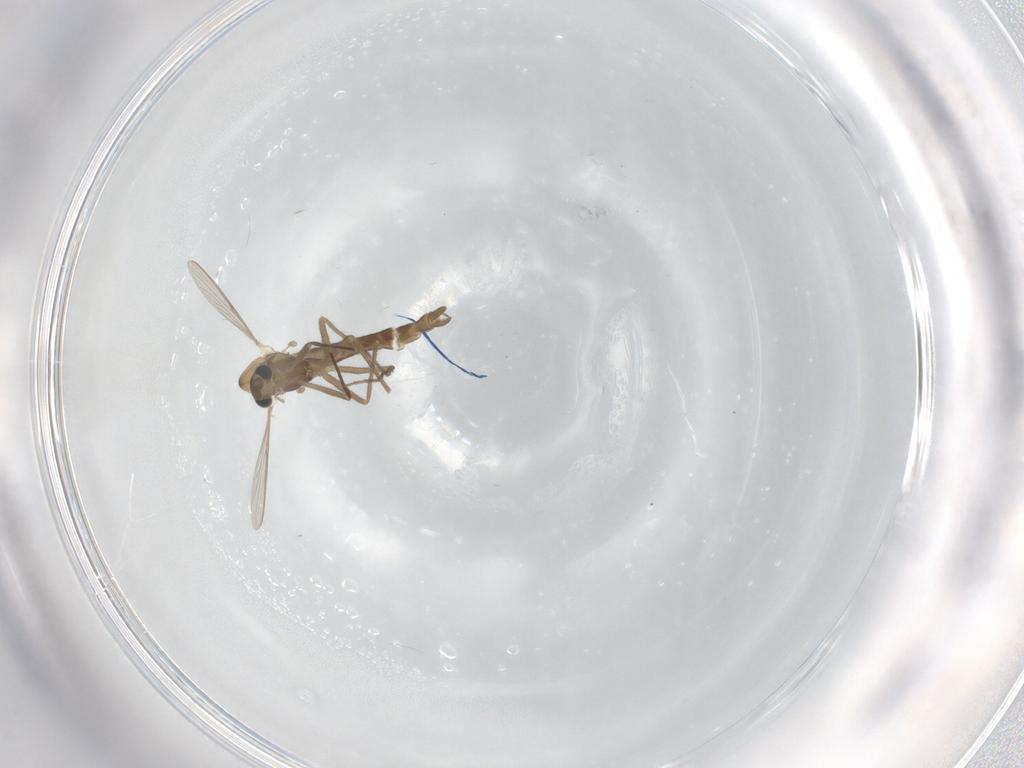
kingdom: Animalia
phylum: Arthropoda
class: Insecta
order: Diptera
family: Chironomidae
